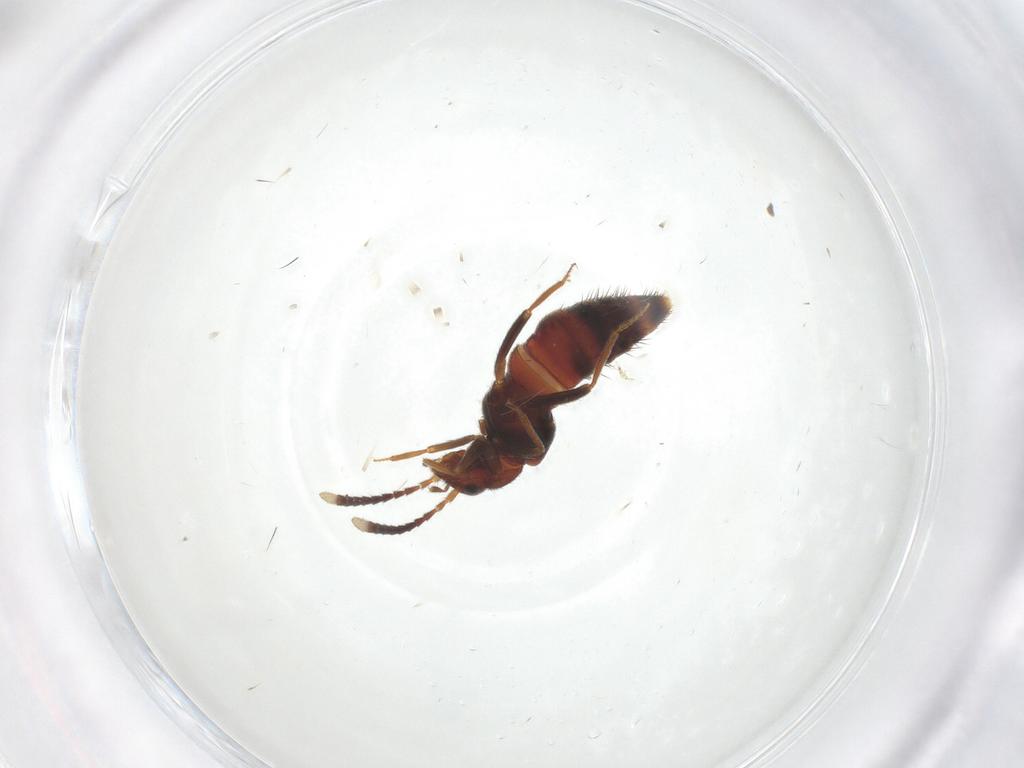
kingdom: Animalia
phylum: Arthropoda
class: Insecta
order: Coleoptera
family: Staphylinidae
